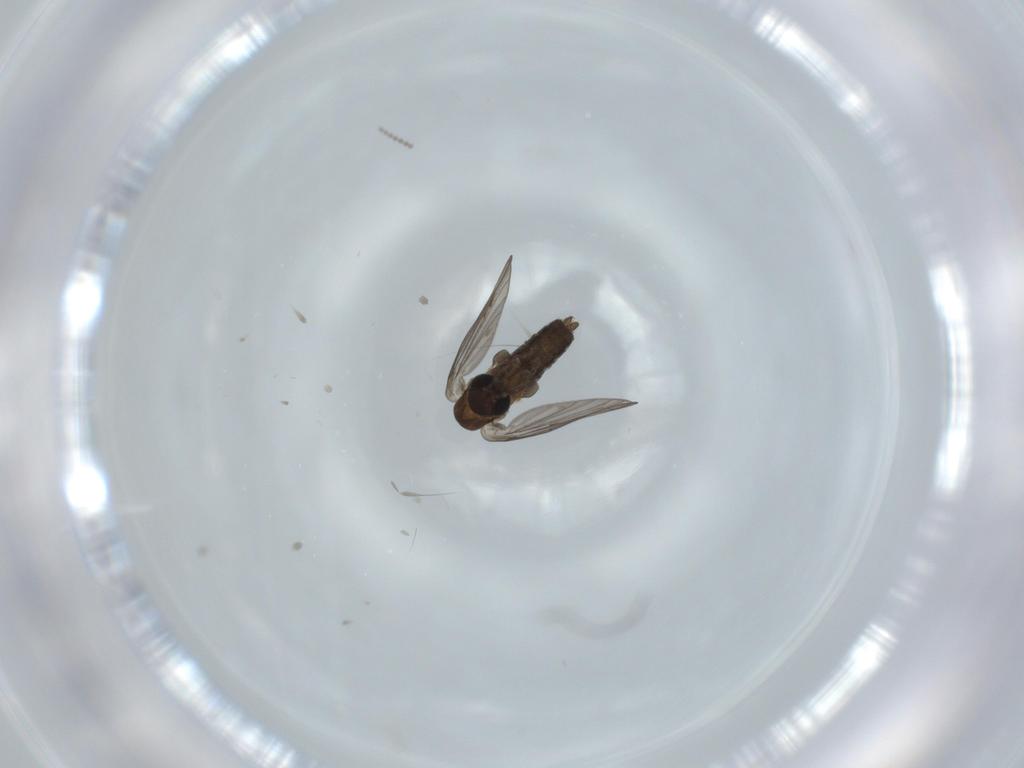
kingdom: Animalia
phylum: Arthropoda
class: Insecta
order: Diptera
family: Psychodidae
